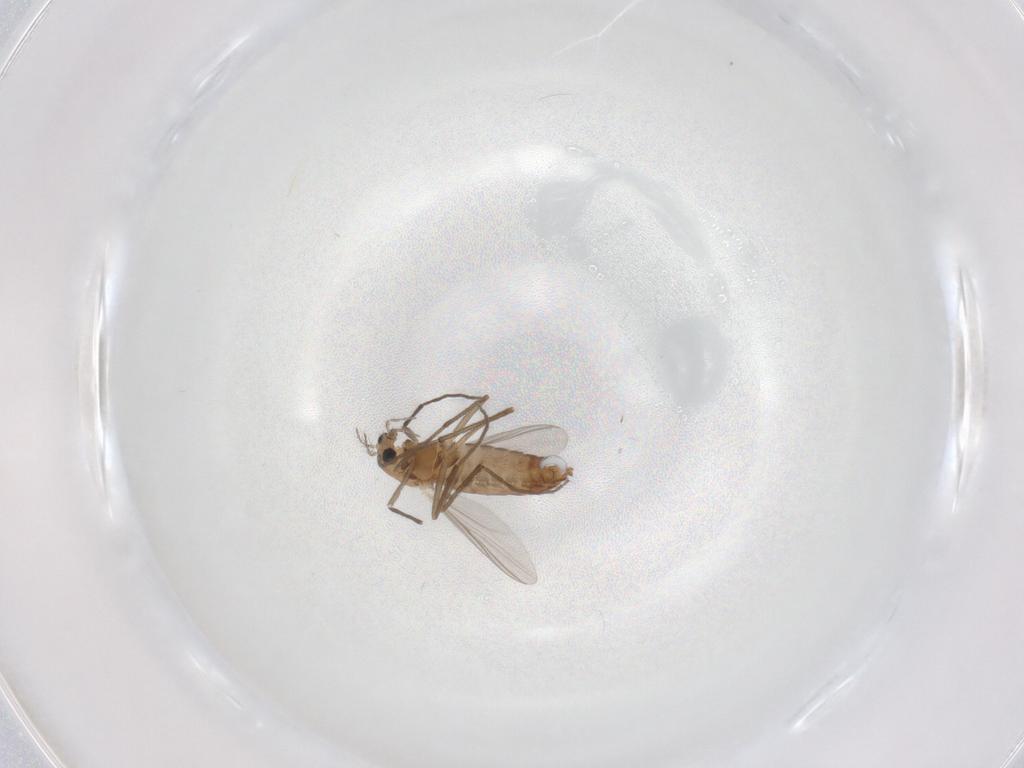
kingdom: Animalia
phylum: Arthropoda
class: Insecta
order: Diptera
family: Chironomidae
